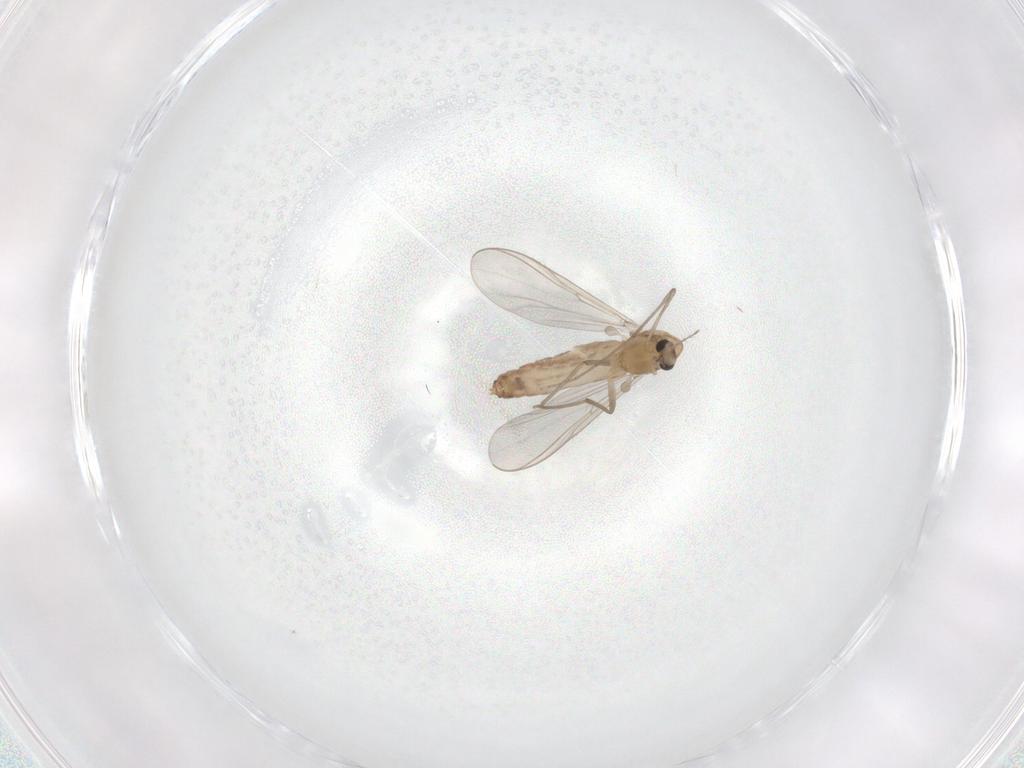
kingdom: Animalia
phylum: Arthropoda
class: Insecta
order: Diptera
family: Chironomidae
